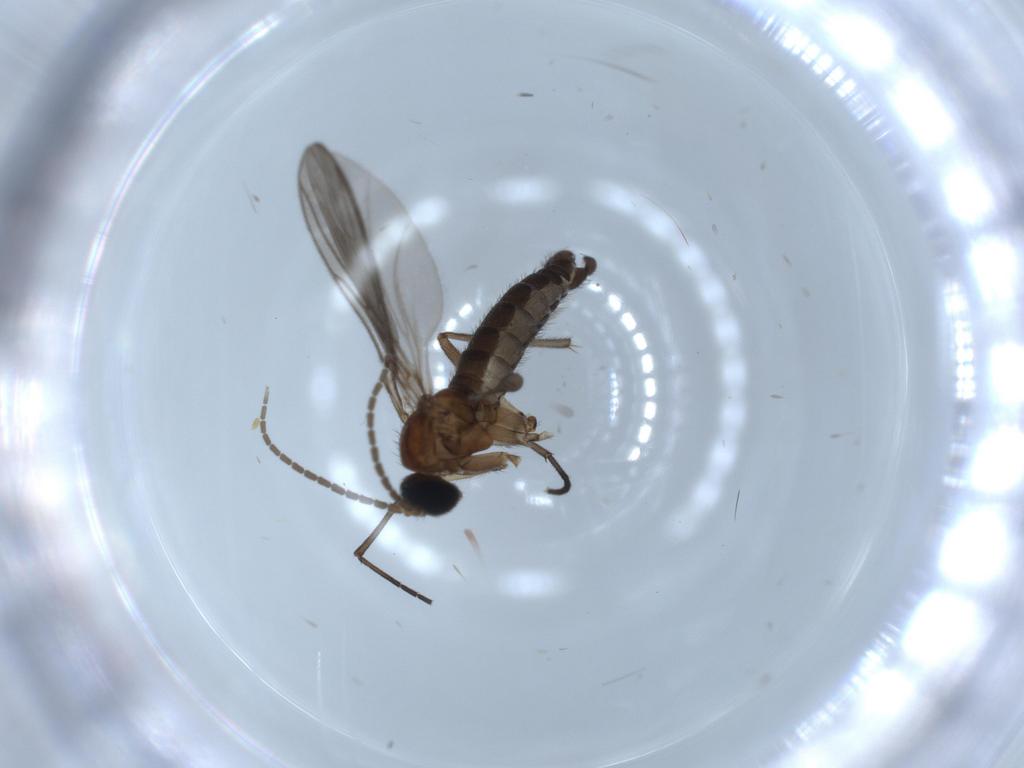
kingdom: Animalia
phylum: Arthropoda
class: Insecta
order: Diptera
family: Sciaridae
